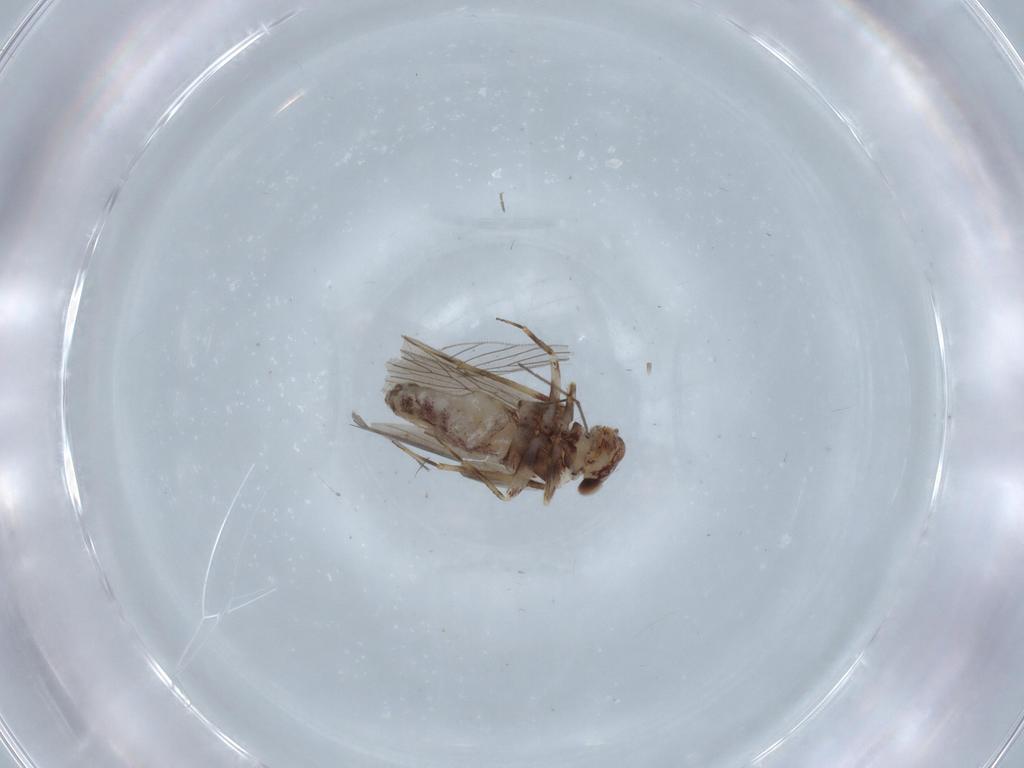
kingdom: Animalia
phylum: Arthropoda
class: Insecta
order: Psocodea
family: Lepidopsocidae
